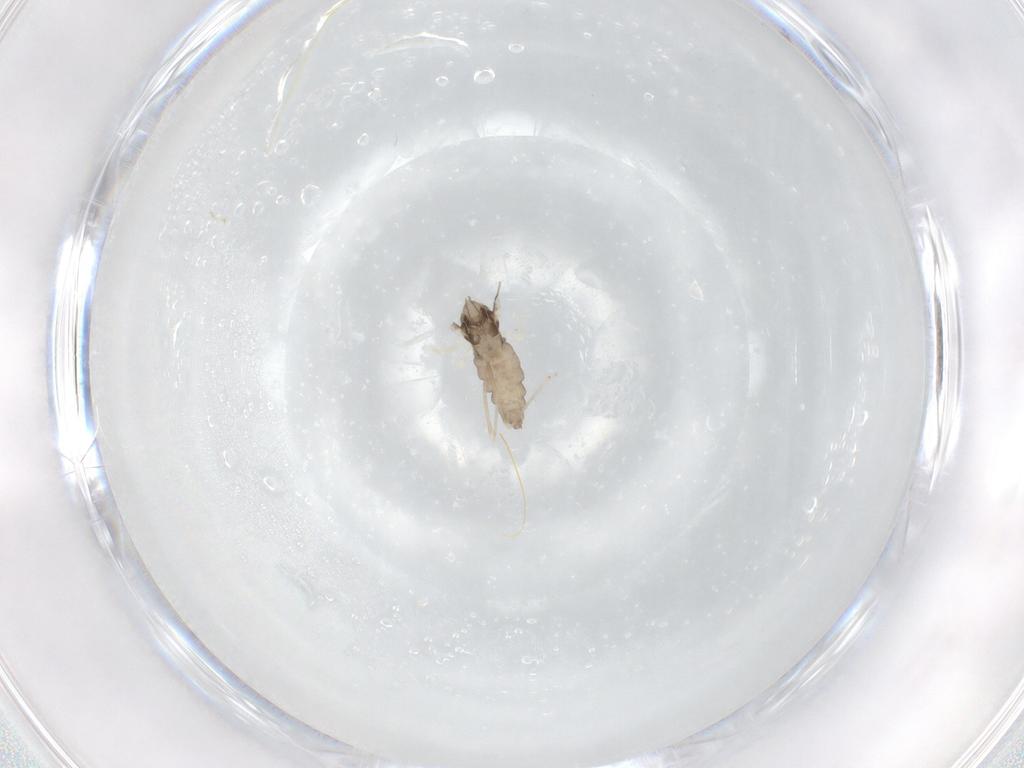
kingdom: Animalia
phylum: Arthropoda
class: Insecta
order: Diptera
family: Cecidomyiidae
